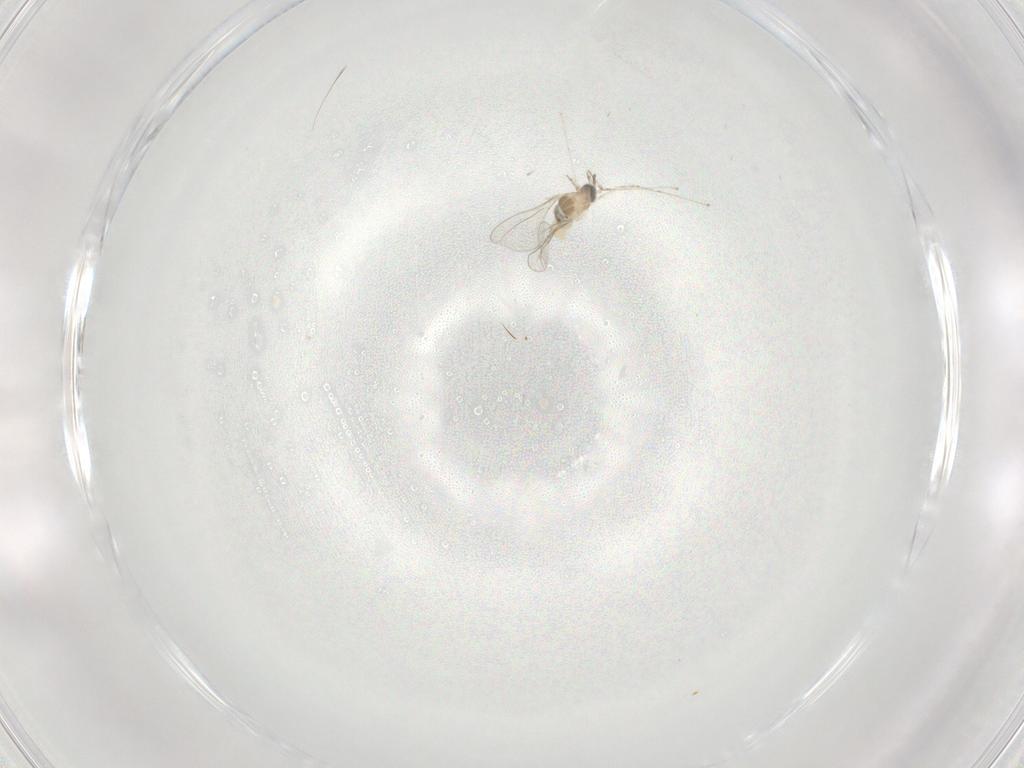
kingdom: Animalia
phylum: Arthropoda
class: Insecta
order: Diptera
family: Cecidomyiidae
